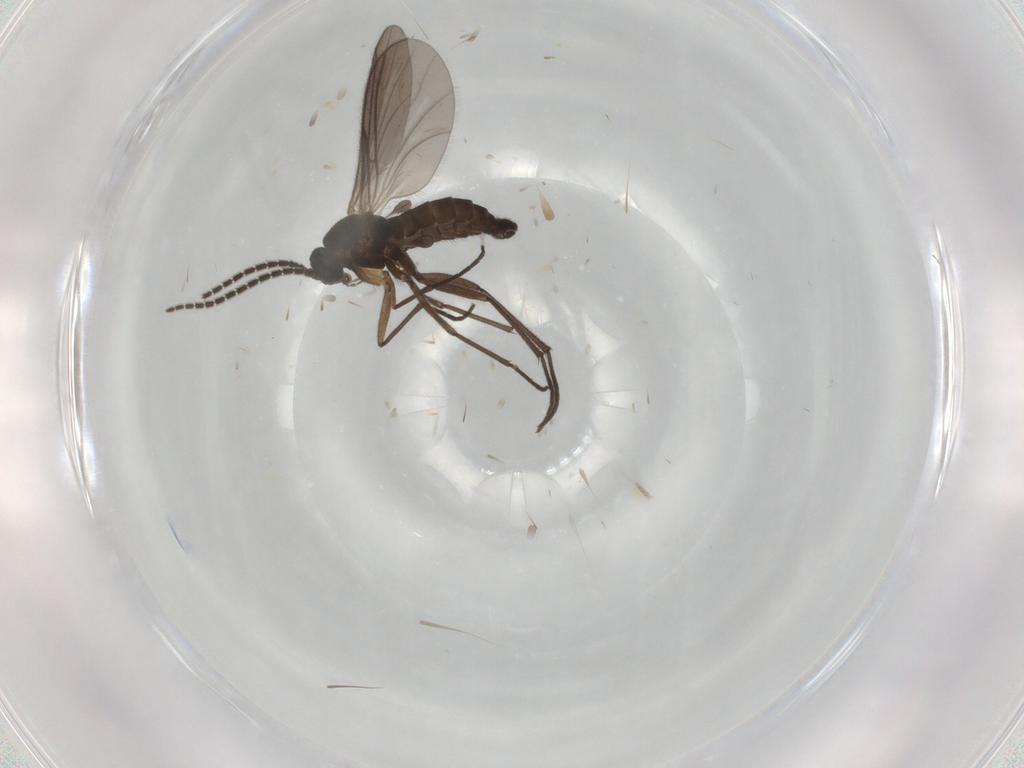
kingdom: Animalia
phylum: Arthropoda
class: Insecta
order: Diptera
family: Sciaridae
